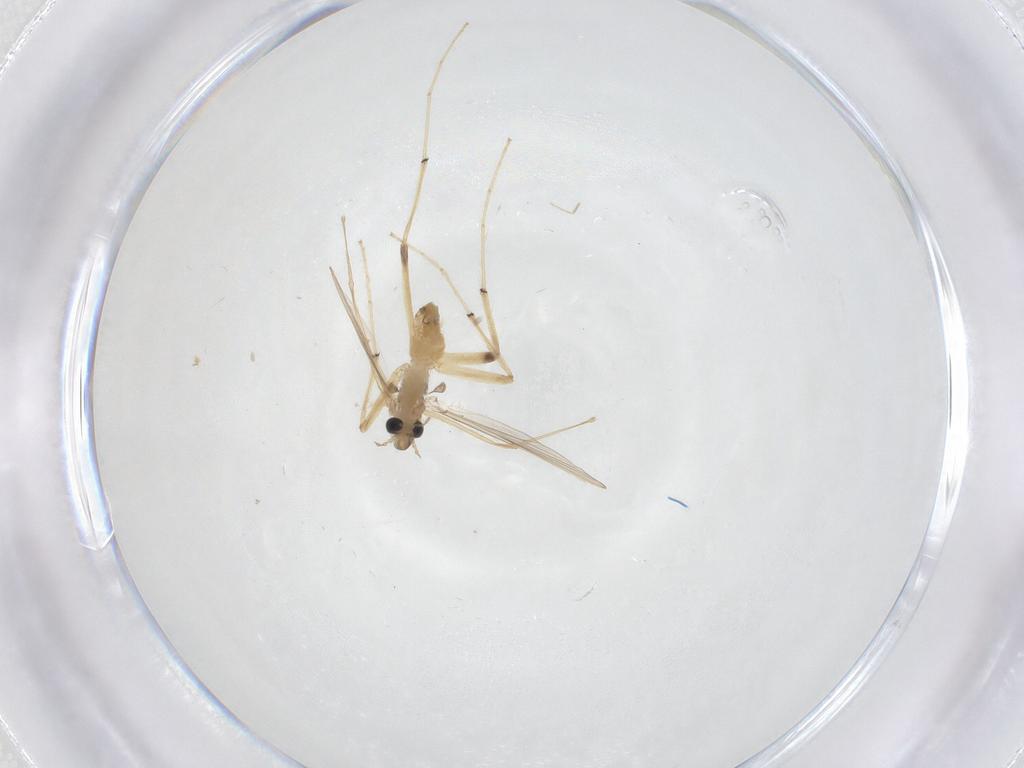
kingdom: Animalia
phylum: Arthropoda
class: Insecta
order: Diptera
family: Chironomidae
